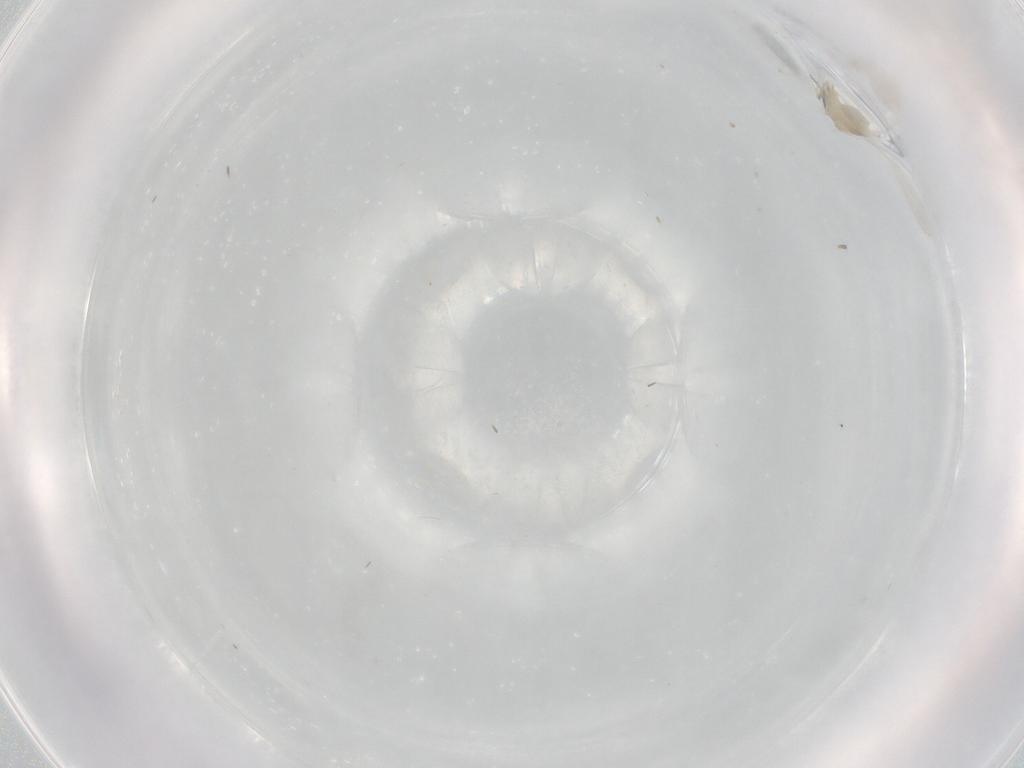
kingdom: Animalia
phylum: Arthropoda
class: Insecta
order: Diptera
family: Cecidomyiidae
